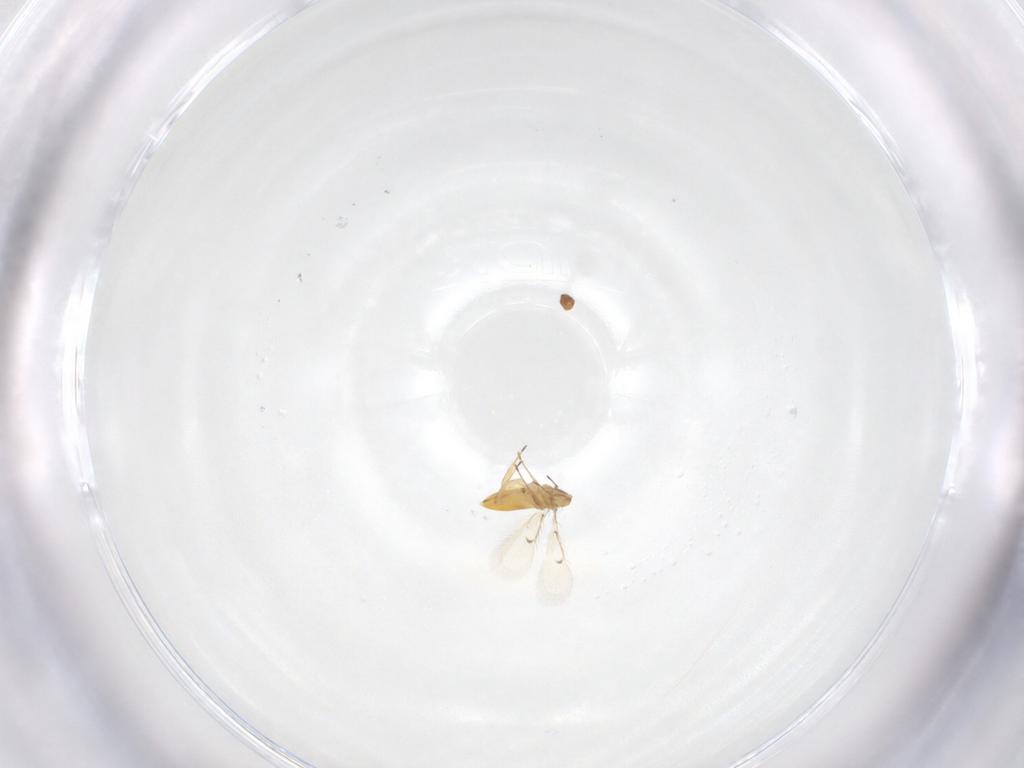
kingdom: Animalia
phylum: Arthropoda
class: Insecta
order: Hymenoptera
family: Trichogrammatidae
